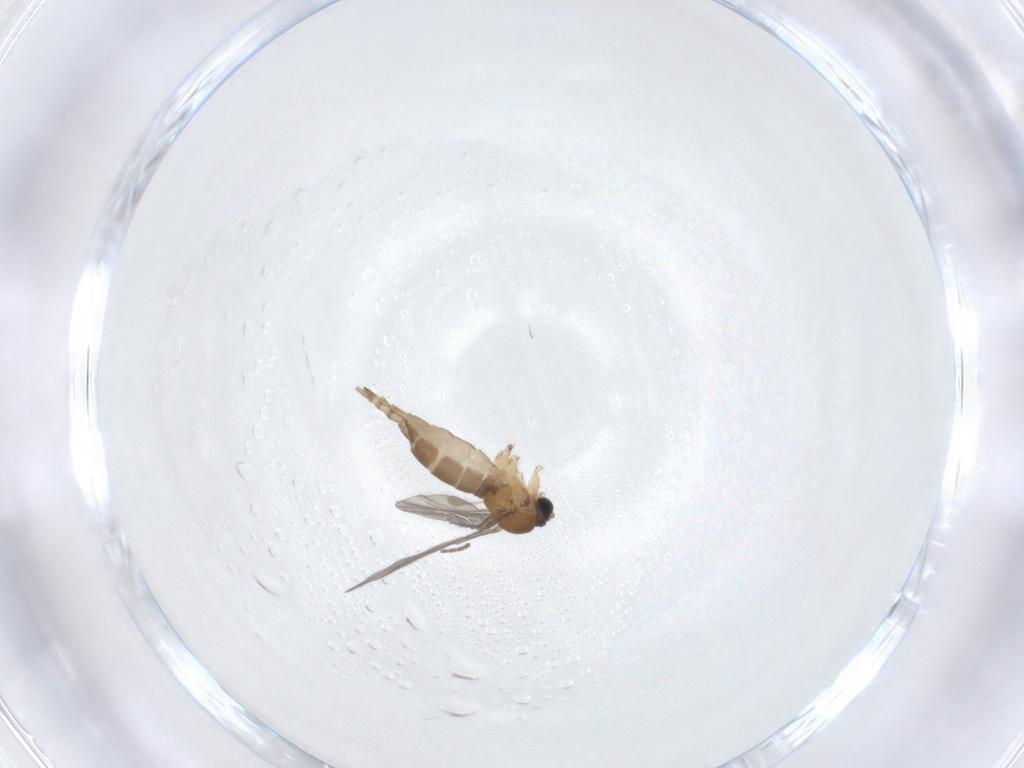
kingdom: Animalia
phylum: Arthropoda
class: Insecta
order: Diptera
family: Sciaridae
